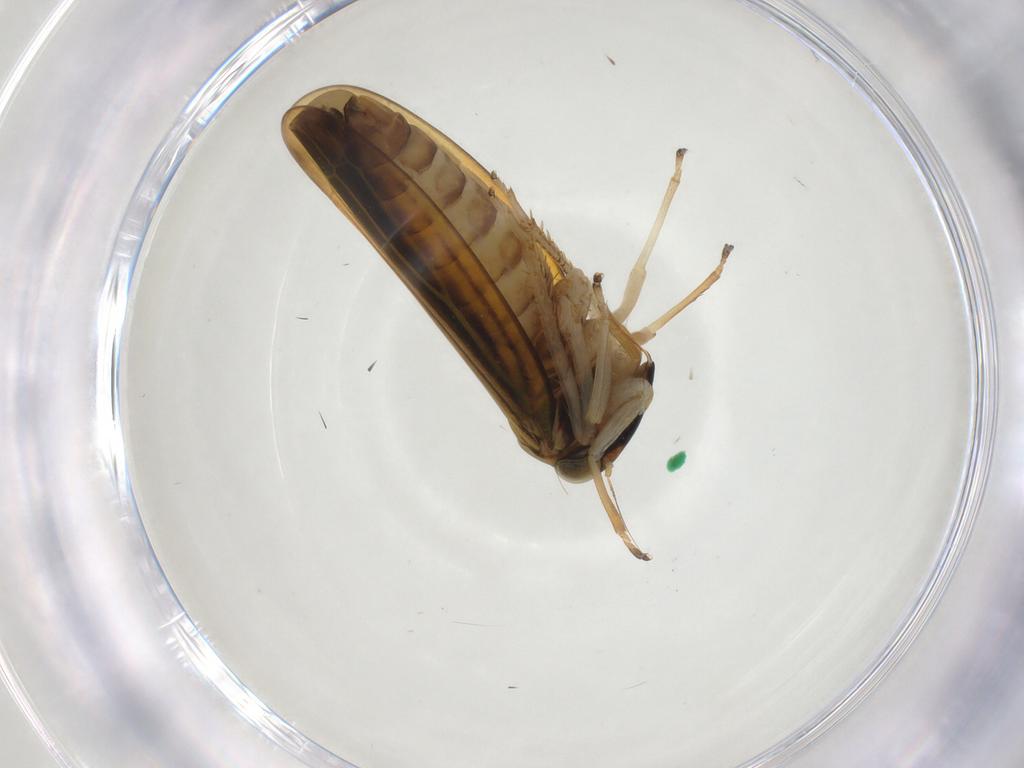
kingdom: Animalia
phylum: Arthropoda
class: Insecta
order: Hemiptera
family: Cicadellidae
